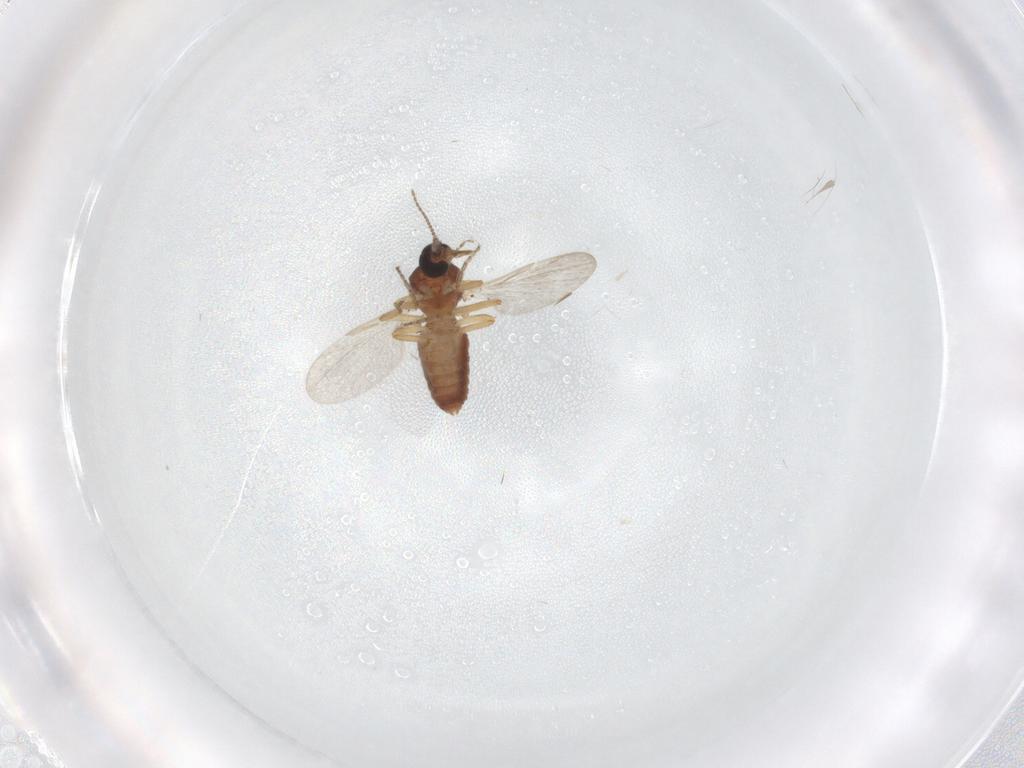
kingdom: Animalia
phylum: Arthropoda
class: Insecta
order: Diptera
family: Ceratopogonidae
